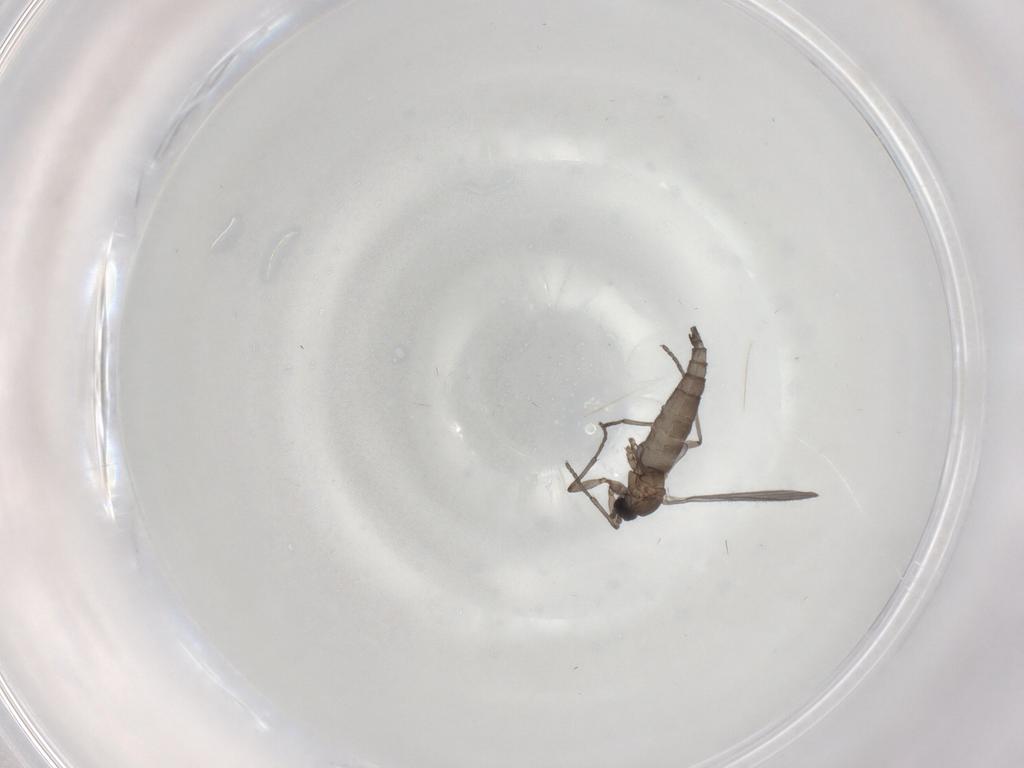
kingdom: Animalia
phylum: Arthropoda
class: Insecta
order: Diptera
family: Sciaridae
